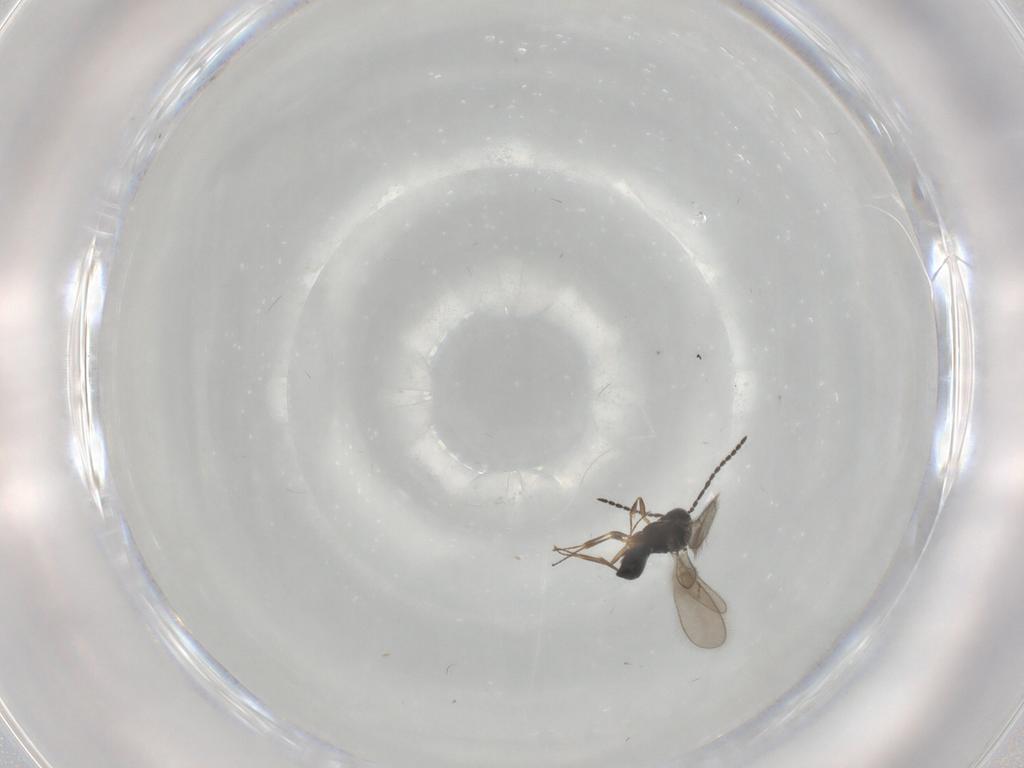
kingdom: Animalia
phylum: Arthropoda
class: Insecta
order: Hymenoptera
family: Scelionidae
